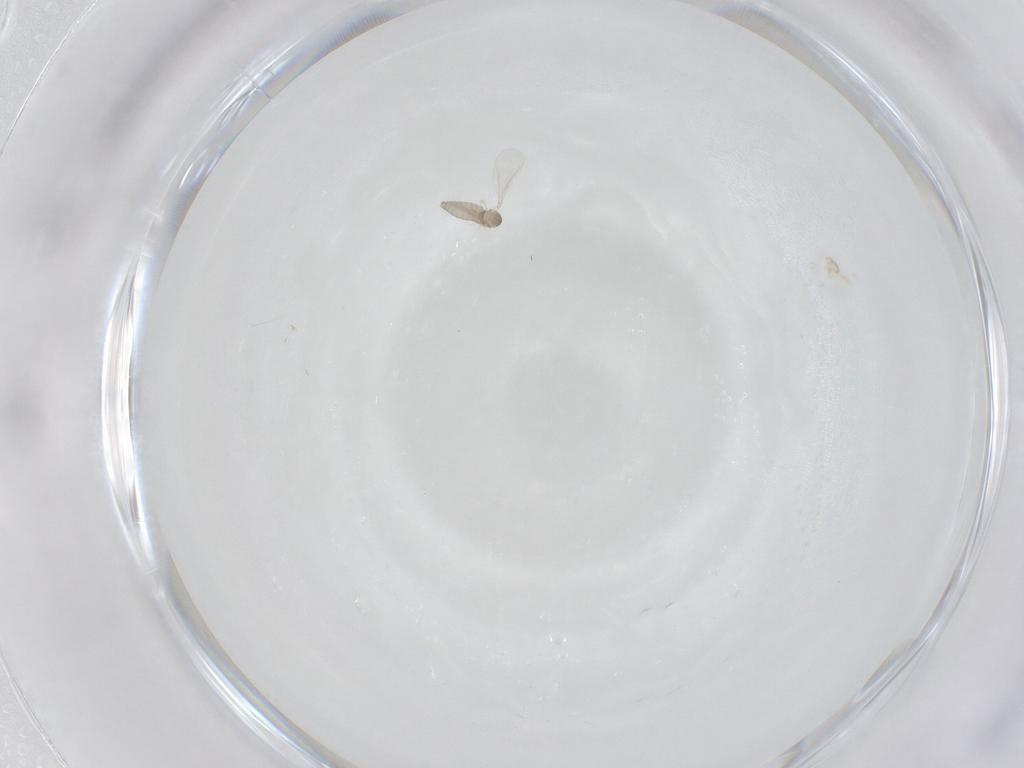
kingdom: Animalia
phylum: Arthropoda
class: Insecta
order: Diptera
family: Cecidomyiidae
